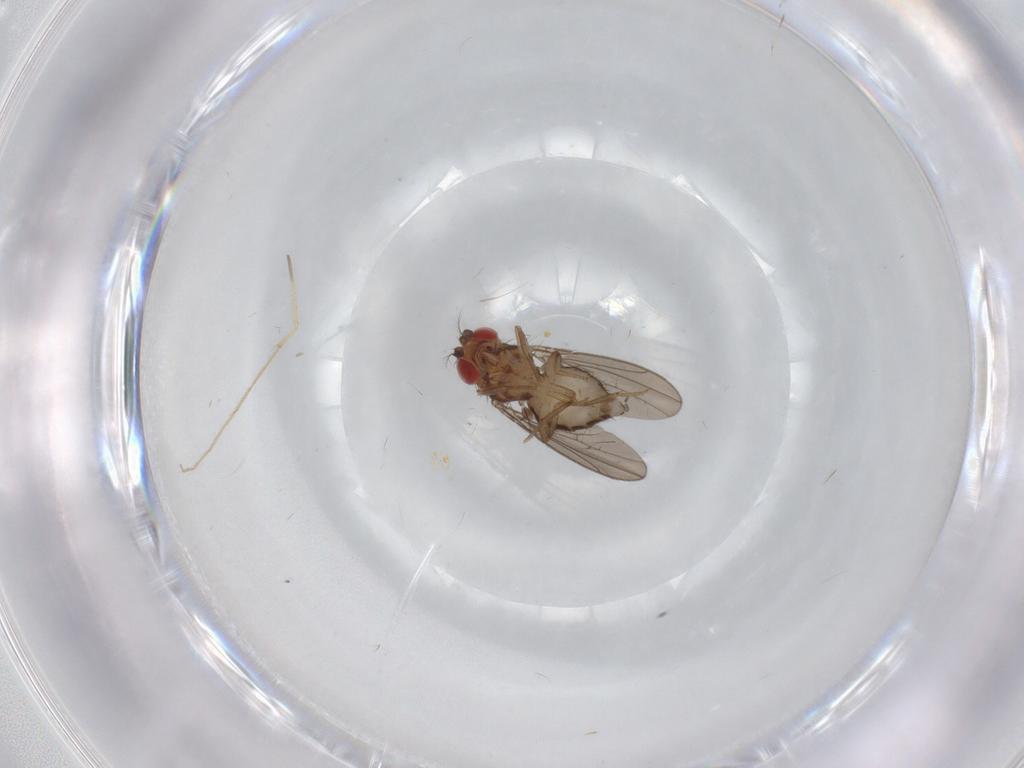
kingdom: Animalia
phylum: Arthropoda
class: Insecta
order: Diptera
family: Drosophilidae
